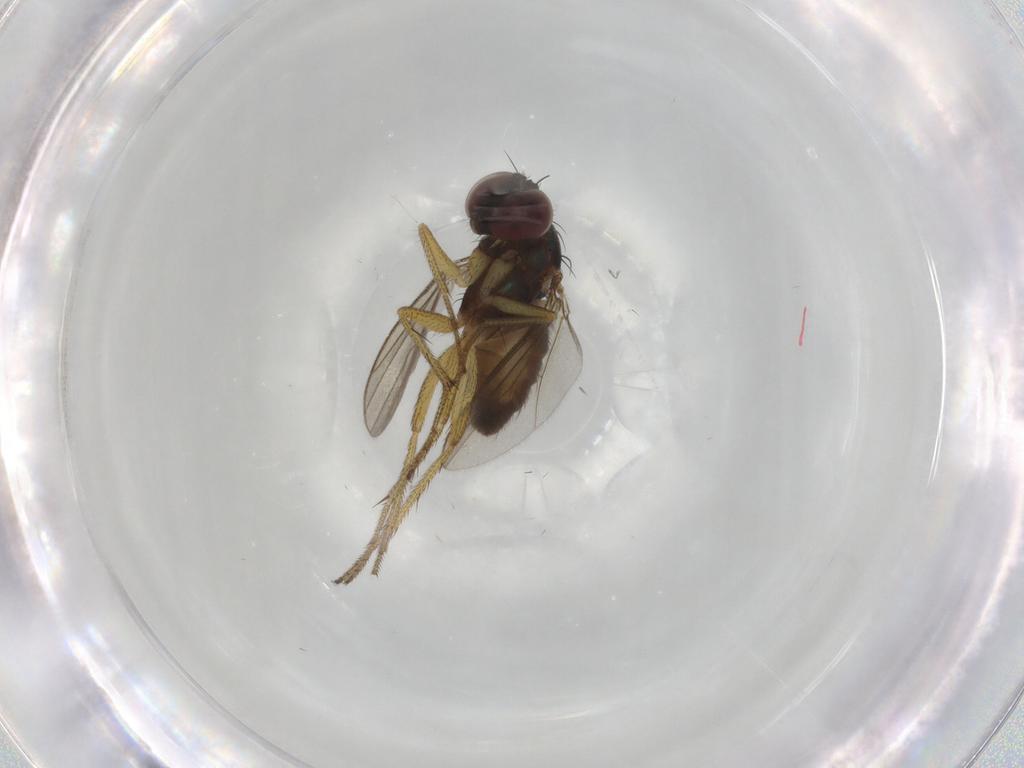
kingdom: Animalia
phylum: Arthropoda
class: Insecta
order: Diptera
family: Dolichopodidae
